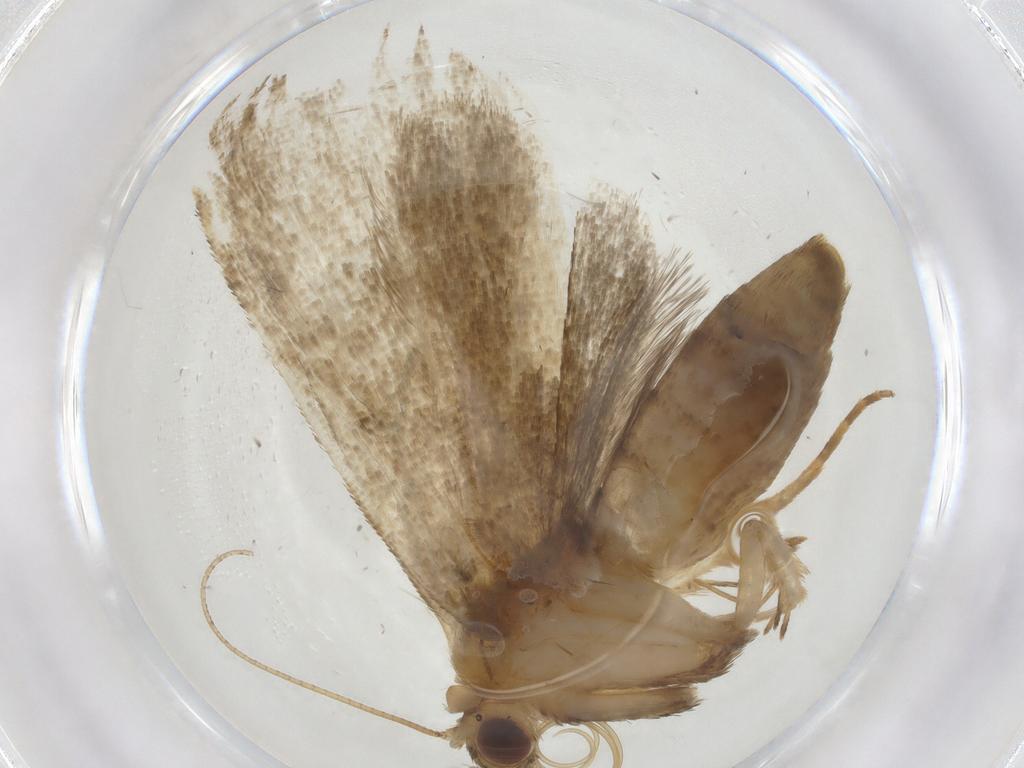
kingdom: Animalia
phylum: Arthropoda
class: Insecta
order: Lepidoptera
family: Erebidae
